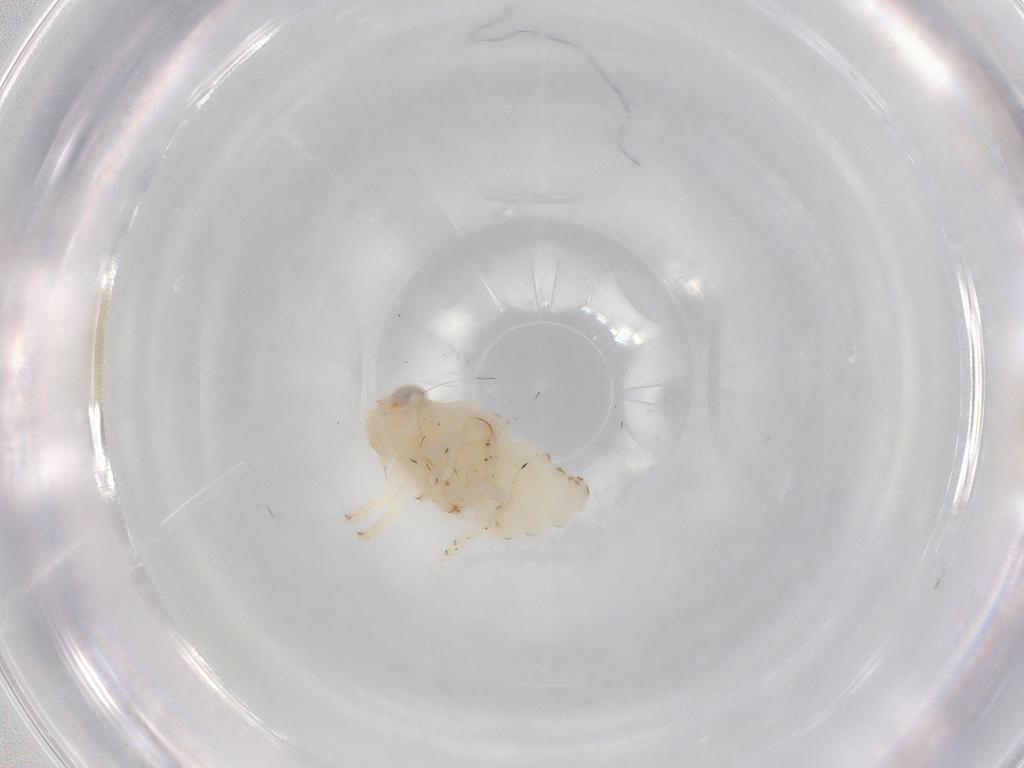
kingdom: Animalia
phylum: Arthropoda
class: Insecta
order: Hemiptera
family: Nogodinidae
